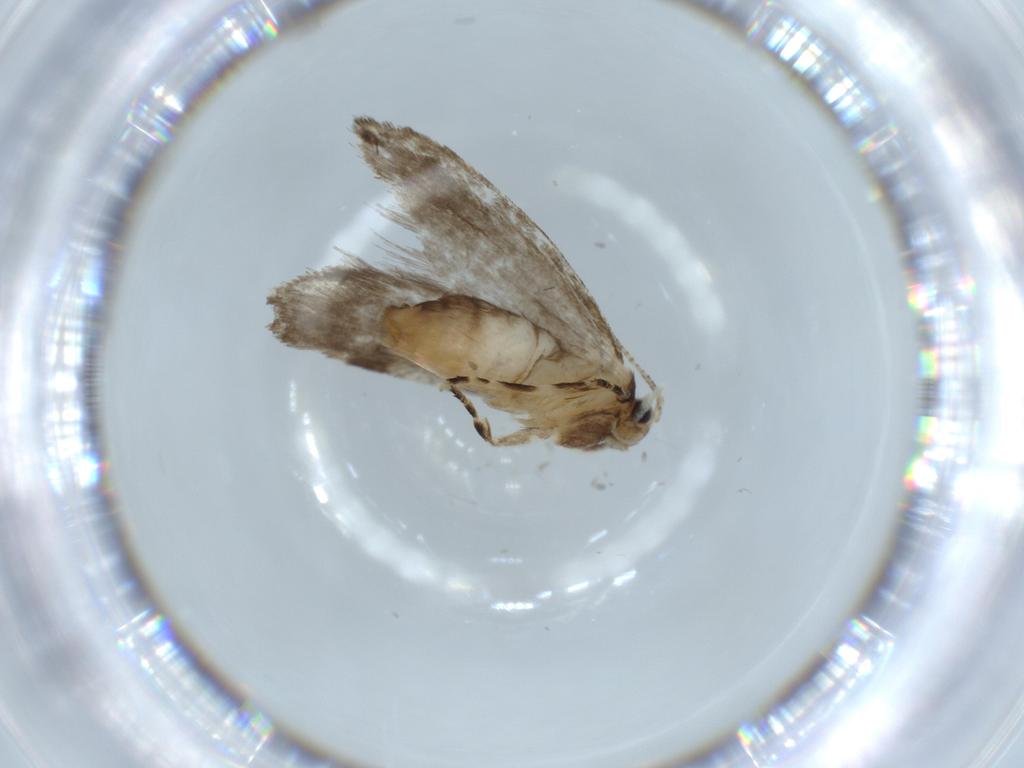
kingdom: Animalia
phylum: Arthropoda
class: Insecta
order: Lepidoptera
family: Tineidae
